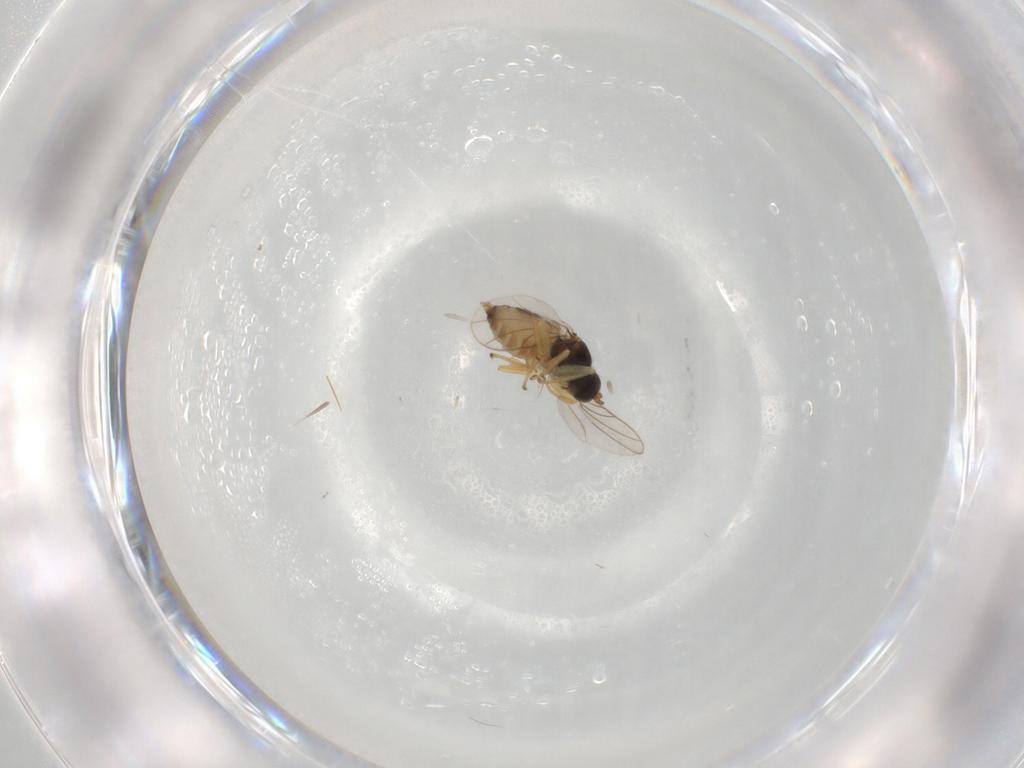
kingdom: Animalia
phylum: Arthropoda
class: Insecta
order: Diptera
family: Hybotidae
